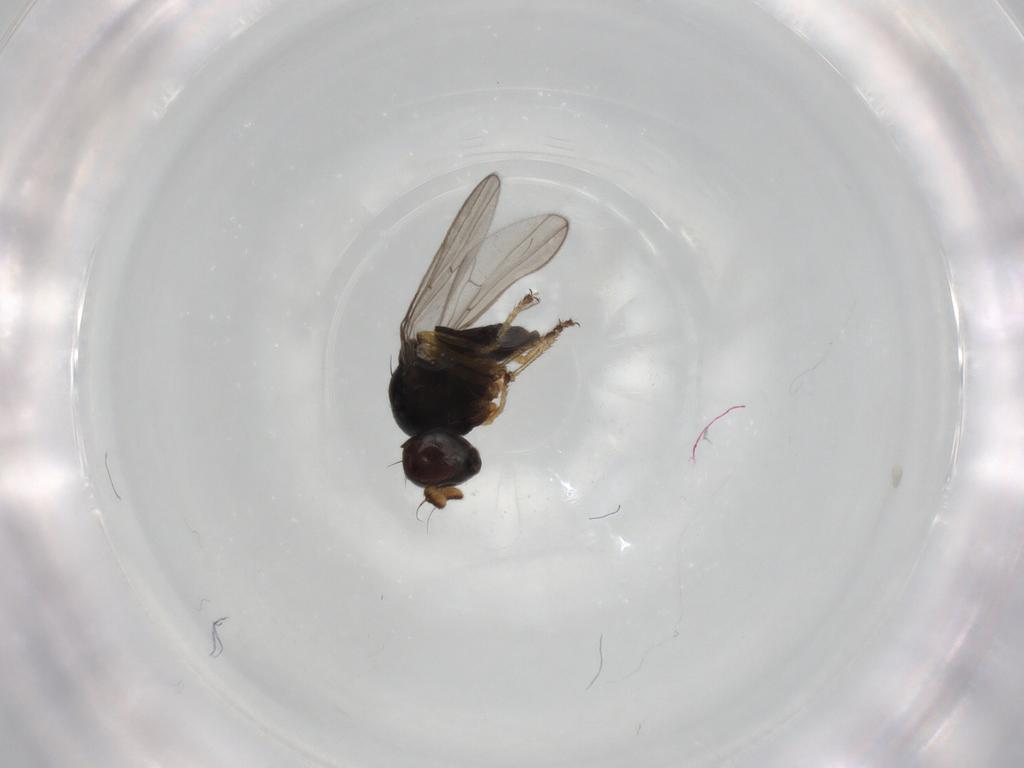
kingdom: Animalia
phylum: Arthropoda
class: Insecta
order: Diptera
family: Ephydridae
